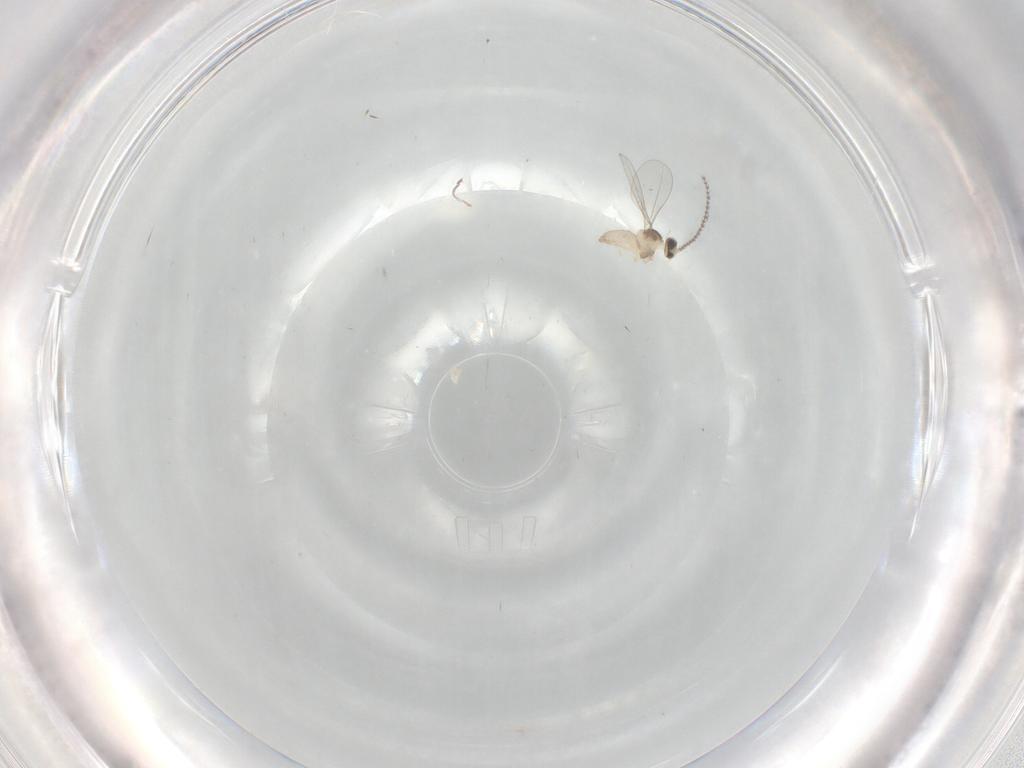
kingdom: Animalia
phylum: Arthropoda
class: Insecta
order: Diptera
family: Cecidomyiidae
